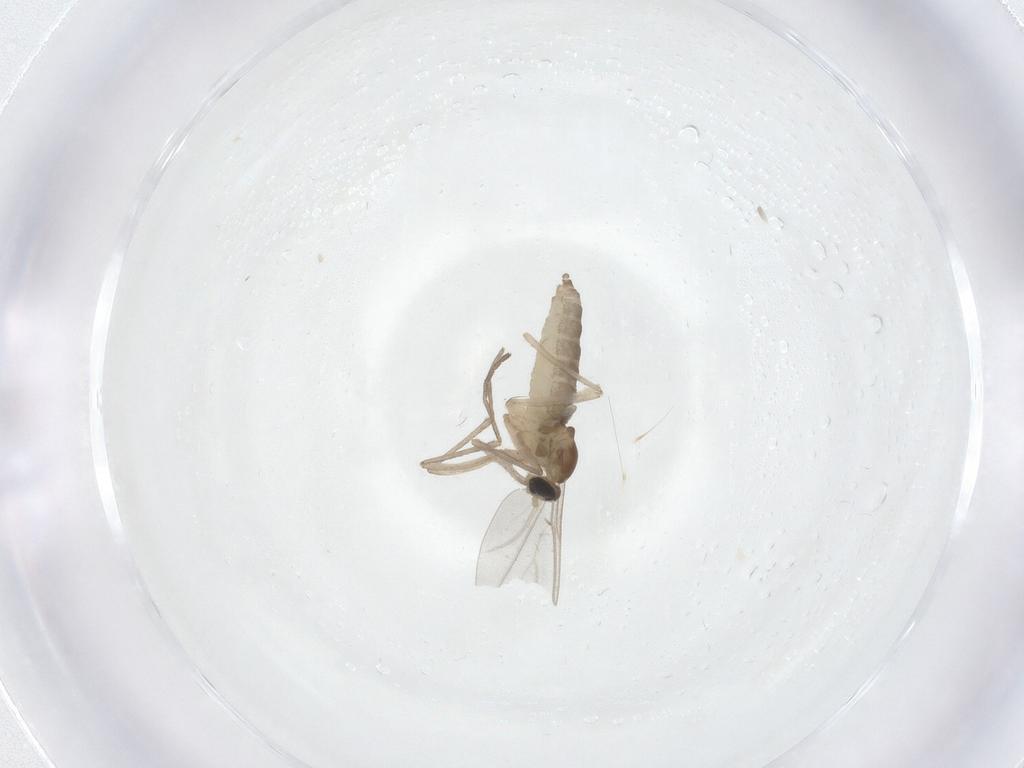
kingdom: Animalia
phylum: Arthropoda
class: Insecta
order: Diptera
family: Cecidomyiidae
